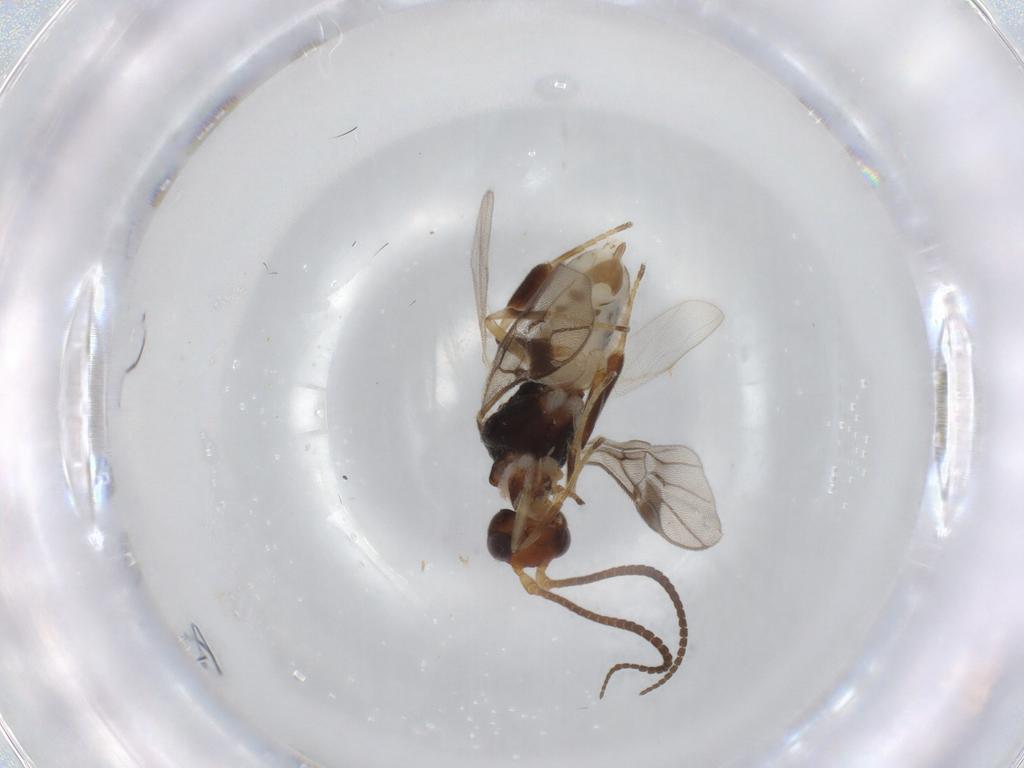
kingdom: Animalia
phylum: Arthropoda
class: Insecta
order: Hymenoptera
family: Braconidae
